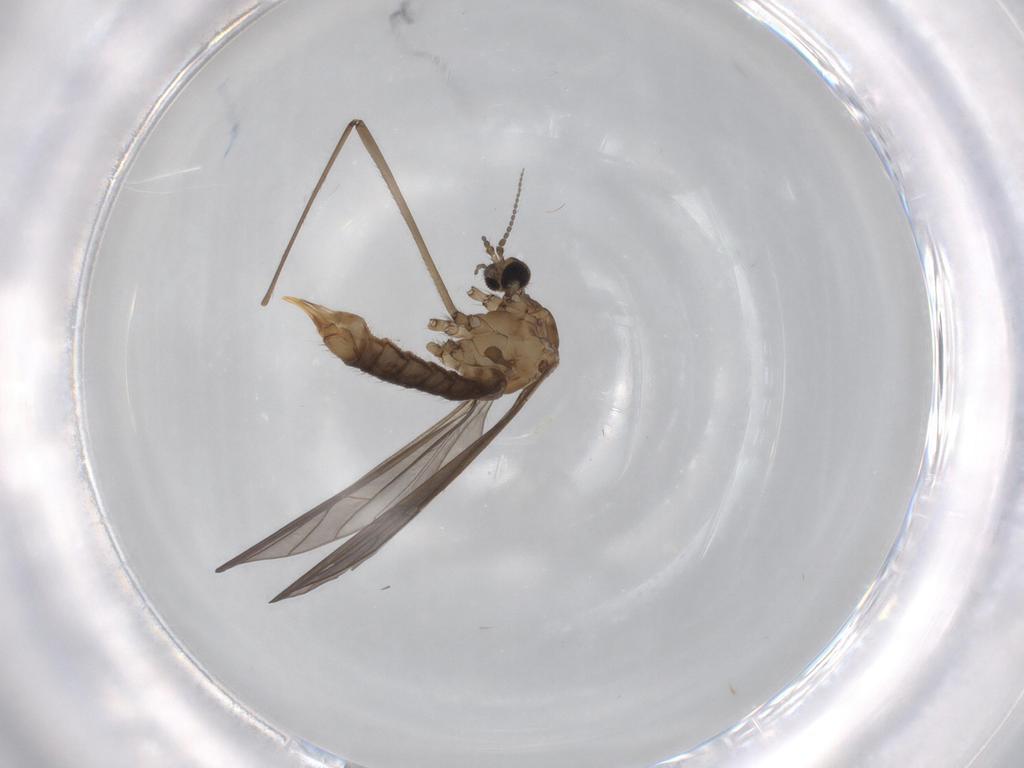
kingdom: Animalia
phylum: Arthropoda
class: Insecta
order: Diptera
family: Limoniidae
